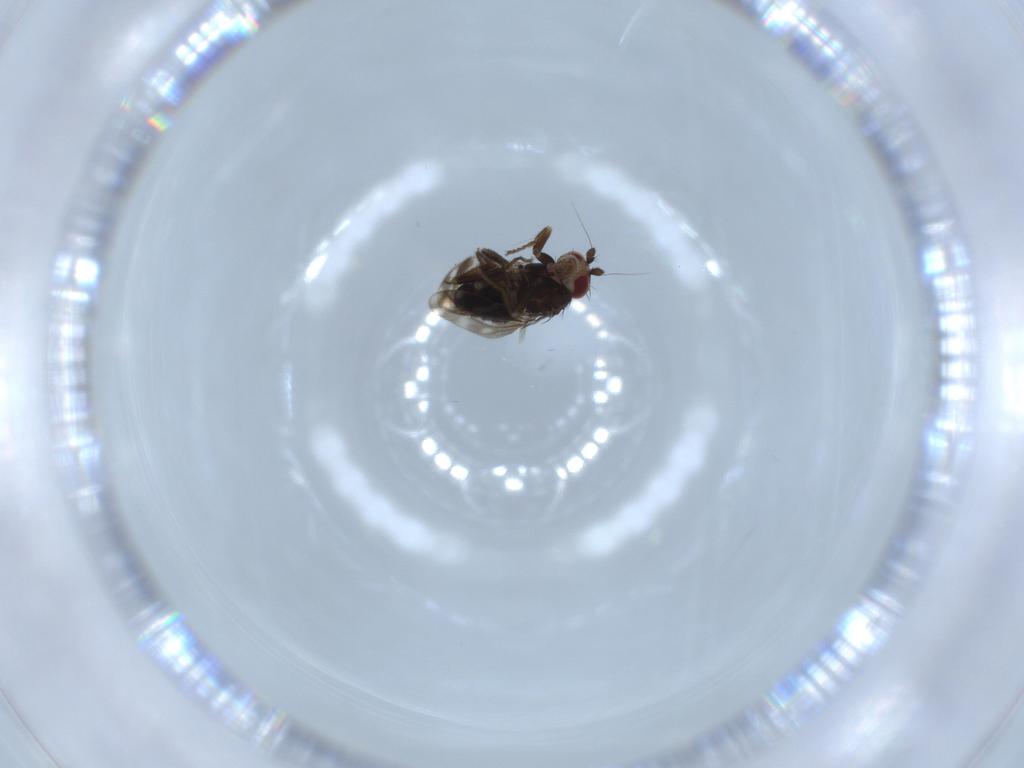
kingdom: Animalia
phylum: Arthropoda
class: Insecta
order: Diptera
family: Sphaeroceridae
